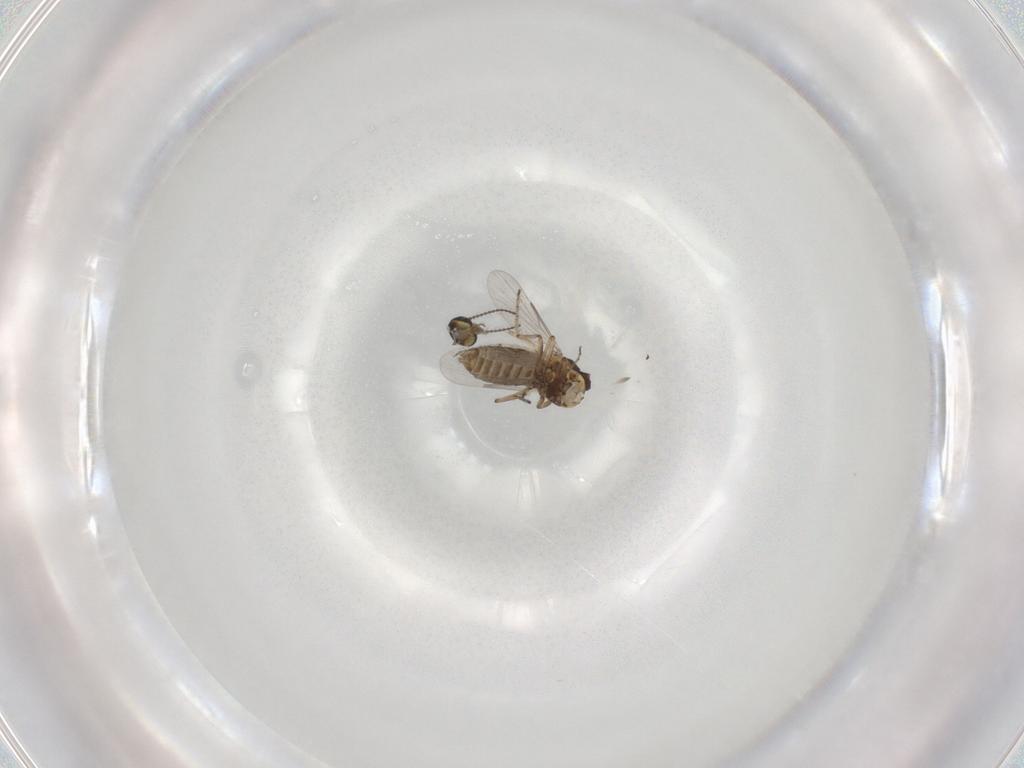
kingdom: Animalia
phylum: Arthropoda
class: Insecta
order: Diptera
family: Ceratopogonidae
